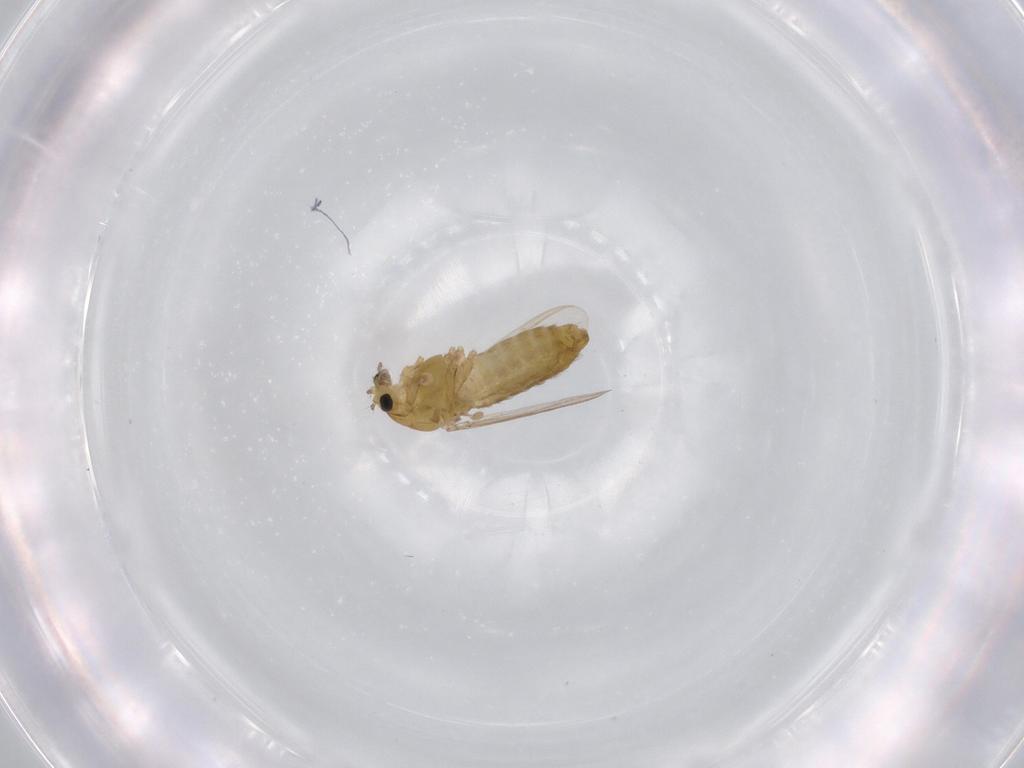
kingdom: Animalia
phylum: Arthropoda
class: Insecta
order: Diptera
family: Chironomidae
